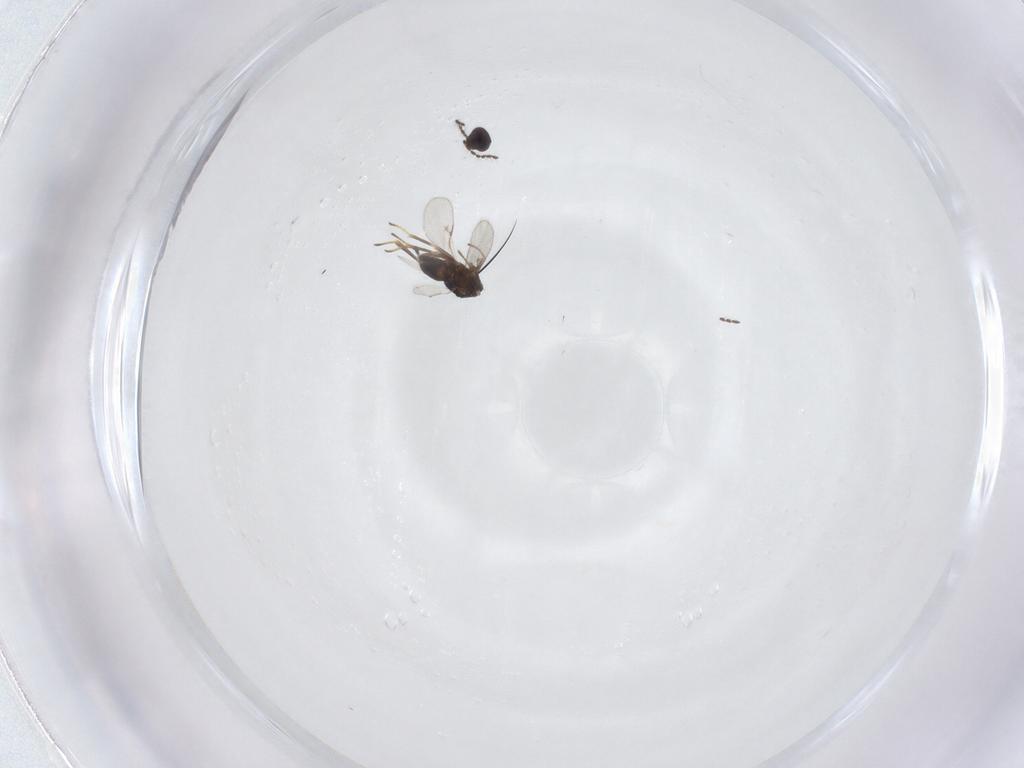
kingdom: Animalia
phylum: Arthropoda
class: Insecta
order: Hymenoptera
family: Encyrtidae
